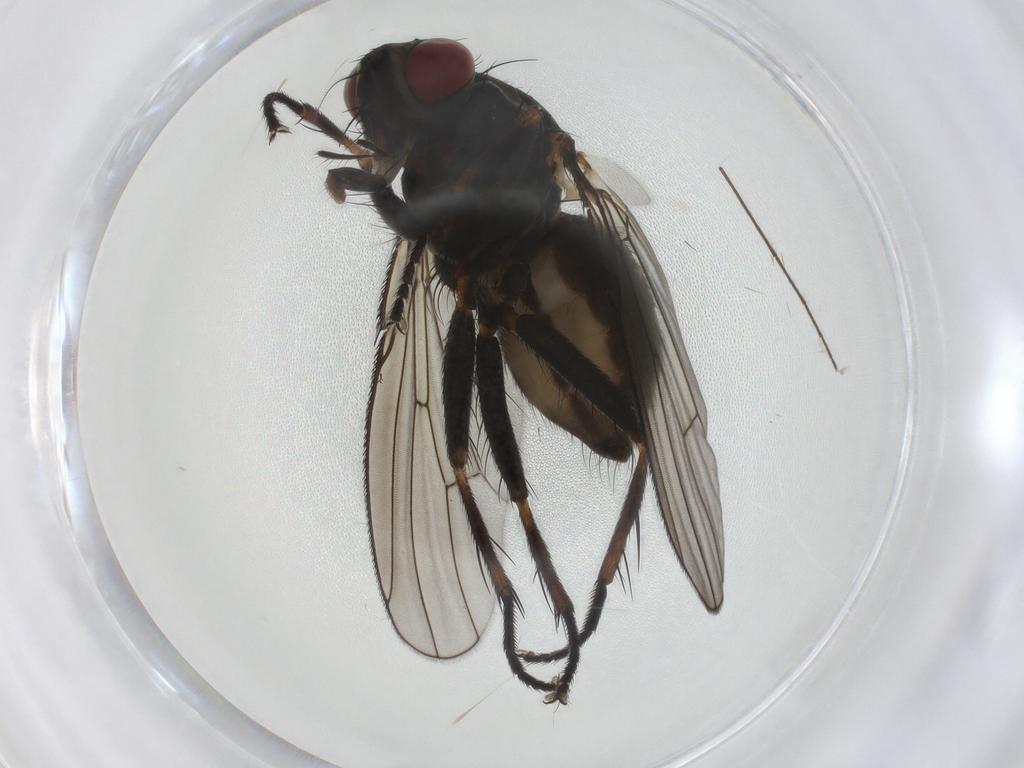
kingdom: Animalia
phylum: Arthropoda
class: Insecta
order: Diptera
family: Muscidae
